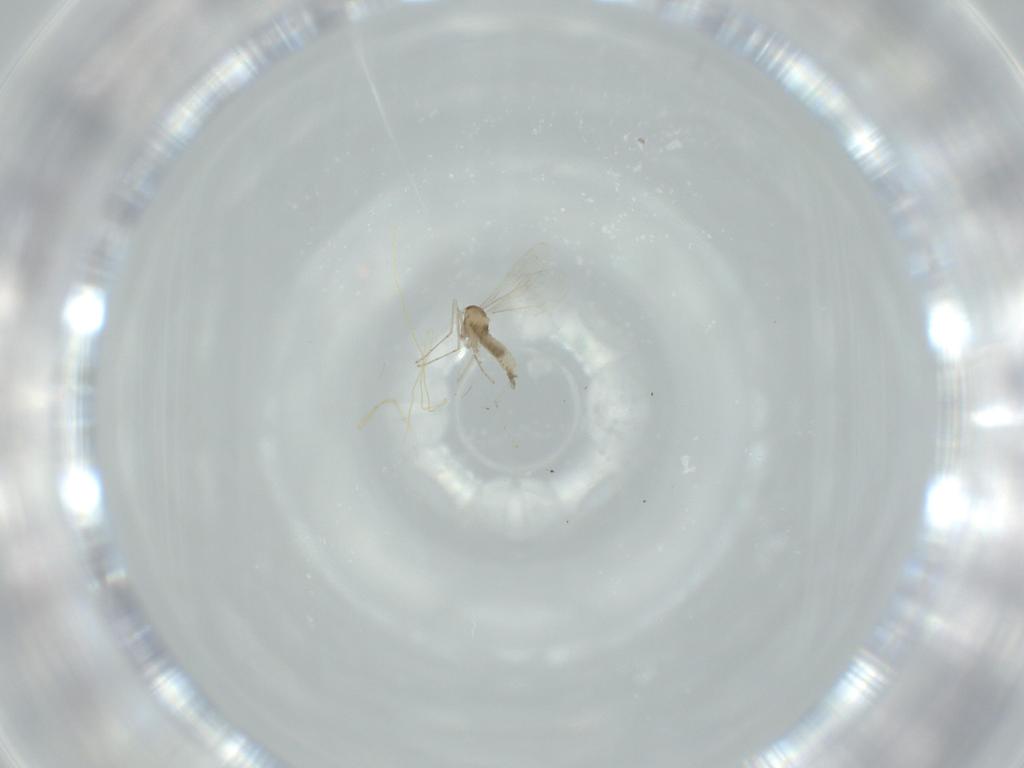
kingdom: Animalia
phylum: Arthropoda
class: Insecta
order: Diptera
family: Cecidomyiidae
